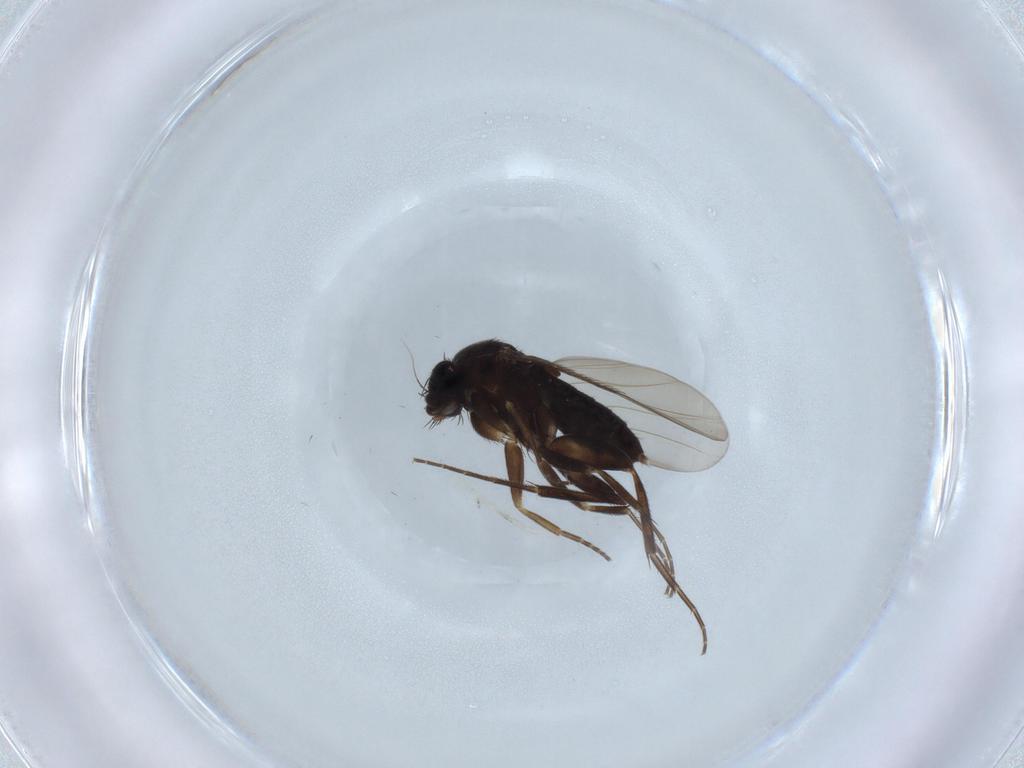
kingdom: Animalia
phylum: Arthropoda
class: Insecta
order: Diptera
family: Phoridae
